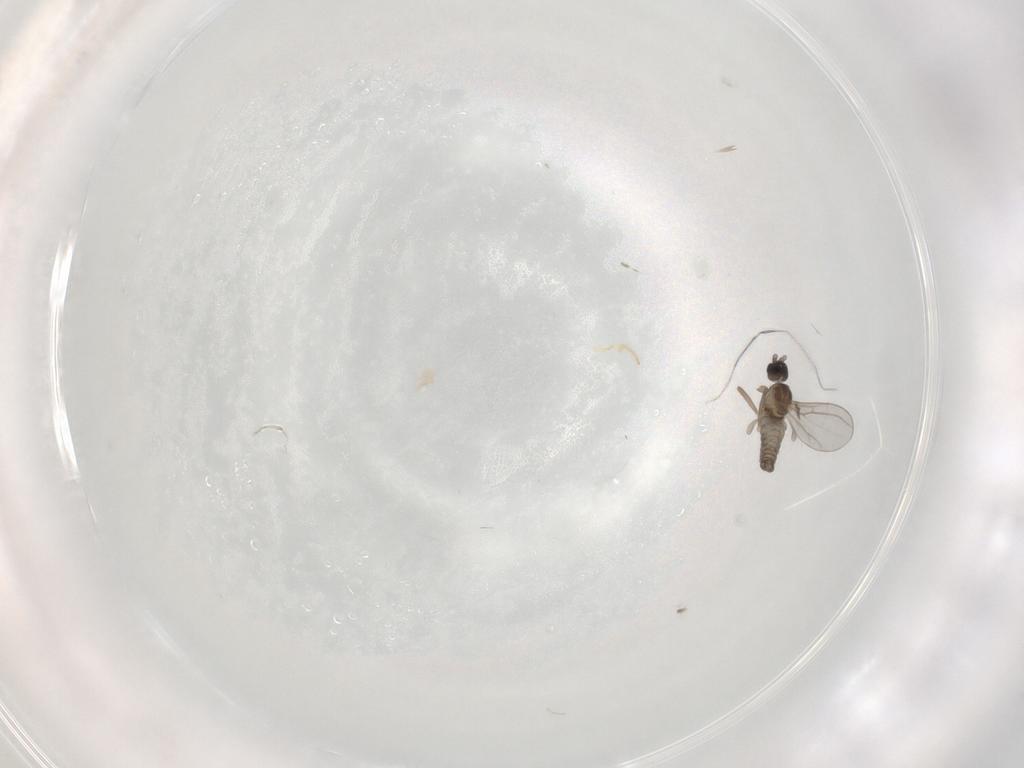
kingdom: Animalia
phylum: Arthropoda
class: Insecta
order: Diptera
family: Cecidomyiidae
